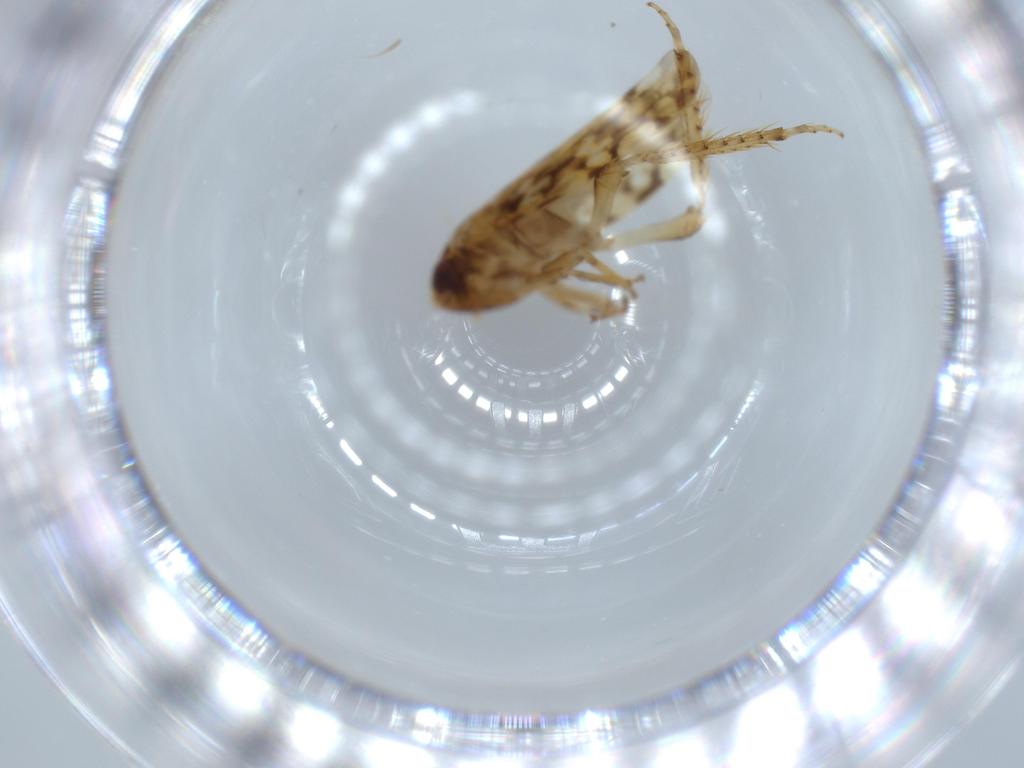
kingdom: Animalia
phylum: Arthropoda
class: Insecta
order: Hemiptera
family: Cicadellidae
